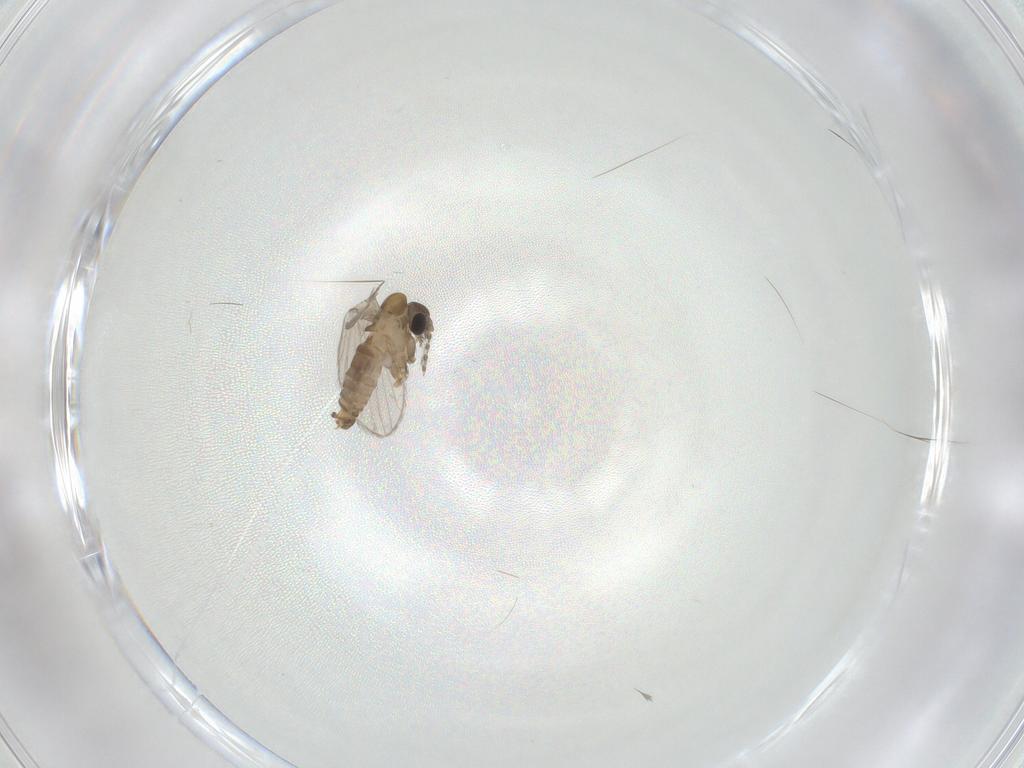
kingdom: Animalia
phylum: Arthropoda
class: Insecta
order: Diptera
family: Psychodidae
